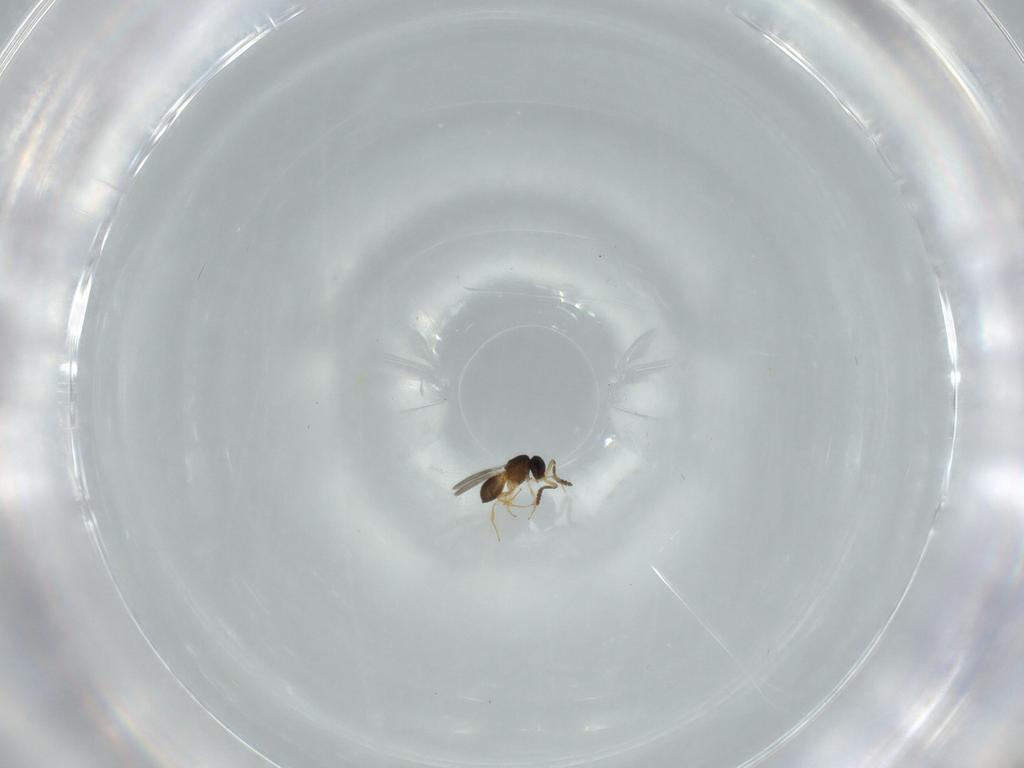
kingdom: Animalia
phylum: Arthropoda
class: Insecta
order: Hymenoptera
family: Scelionidae
